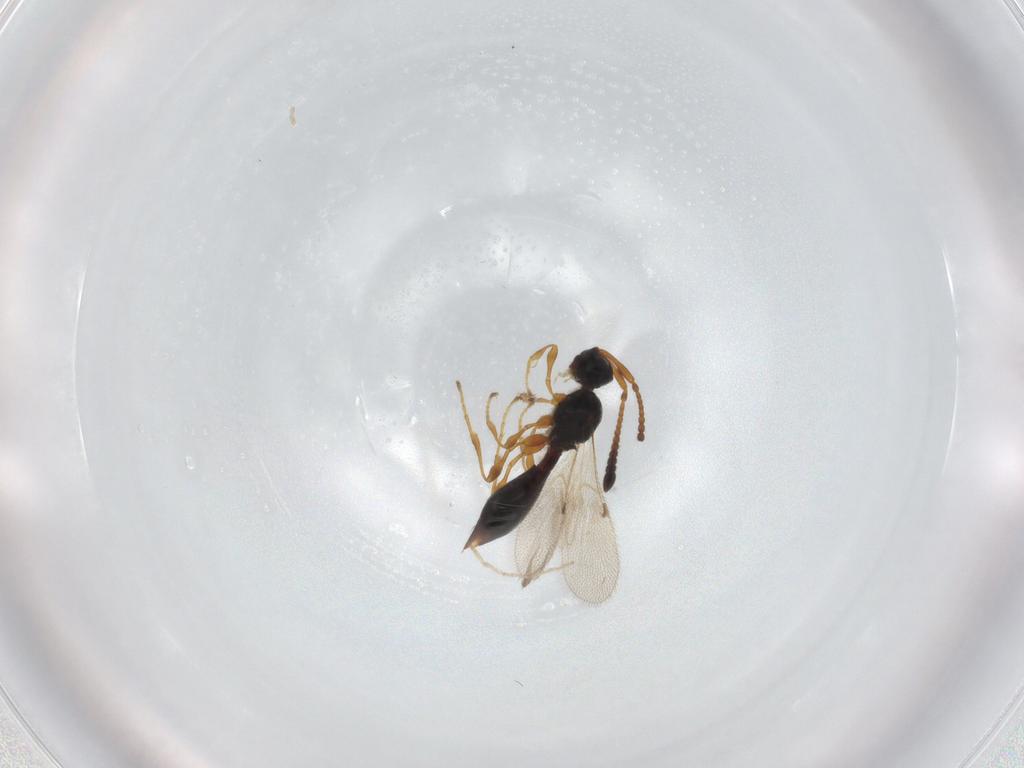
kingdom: Animalia
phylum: Arthropoda
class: Insecta
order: Hymenoptera
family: Diapriidae
